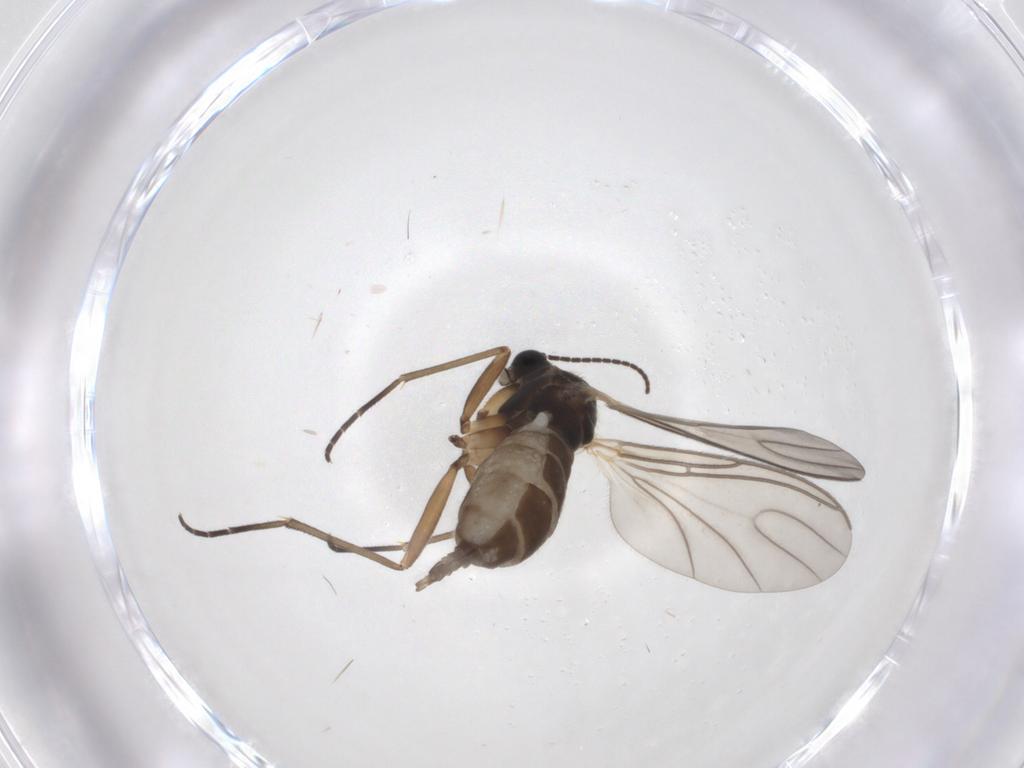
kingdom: Animalia
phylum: Arthropoda
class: Insecta
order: Diptera
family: Sciaridae
